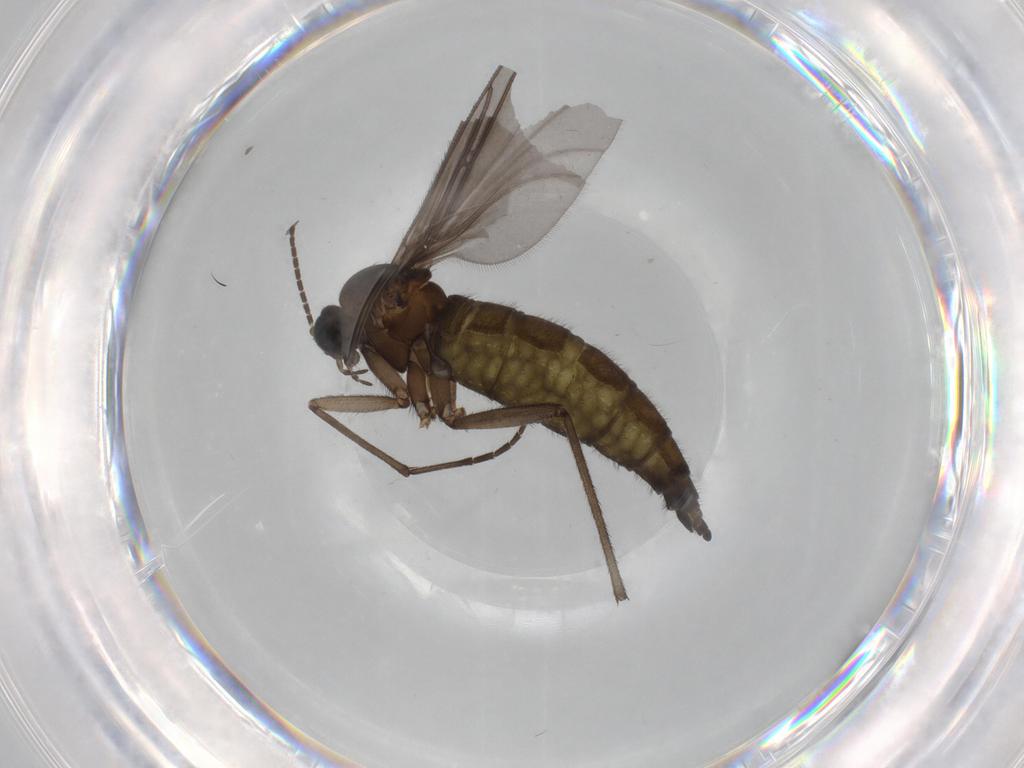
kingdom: Animalia
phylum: Arthropoda
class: Insecta
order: Diptera
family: Sciaridae
